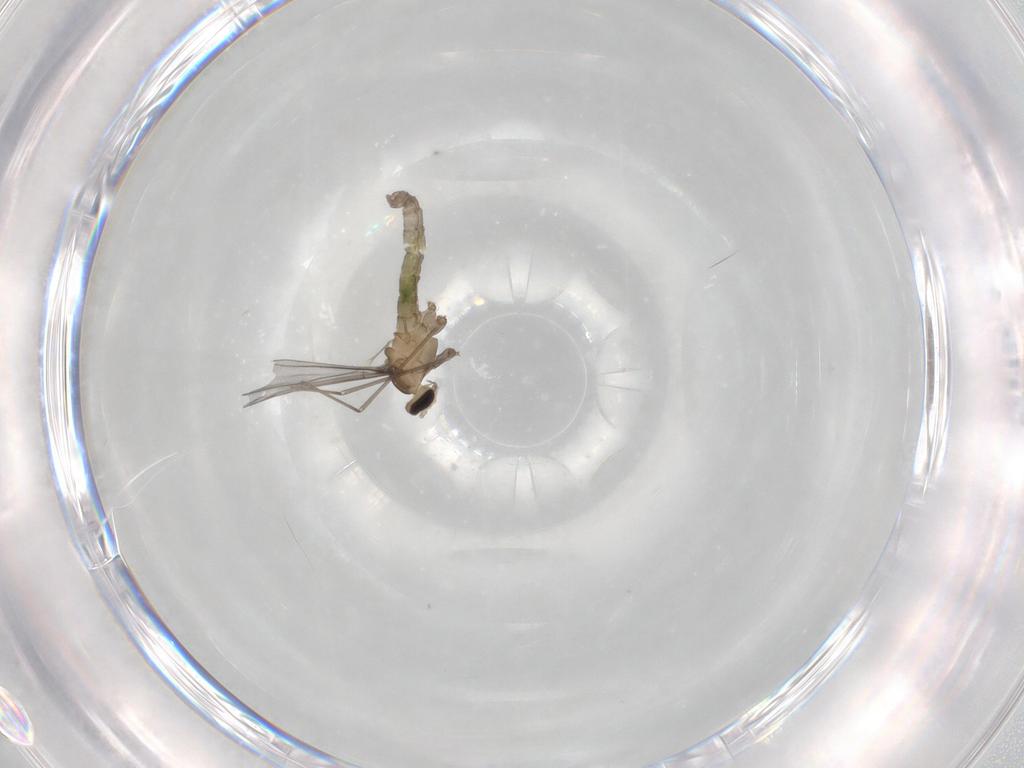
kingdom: Animalia
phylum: Arthropoda
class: Insecta
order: Diptera
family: Cecidomyiidae
